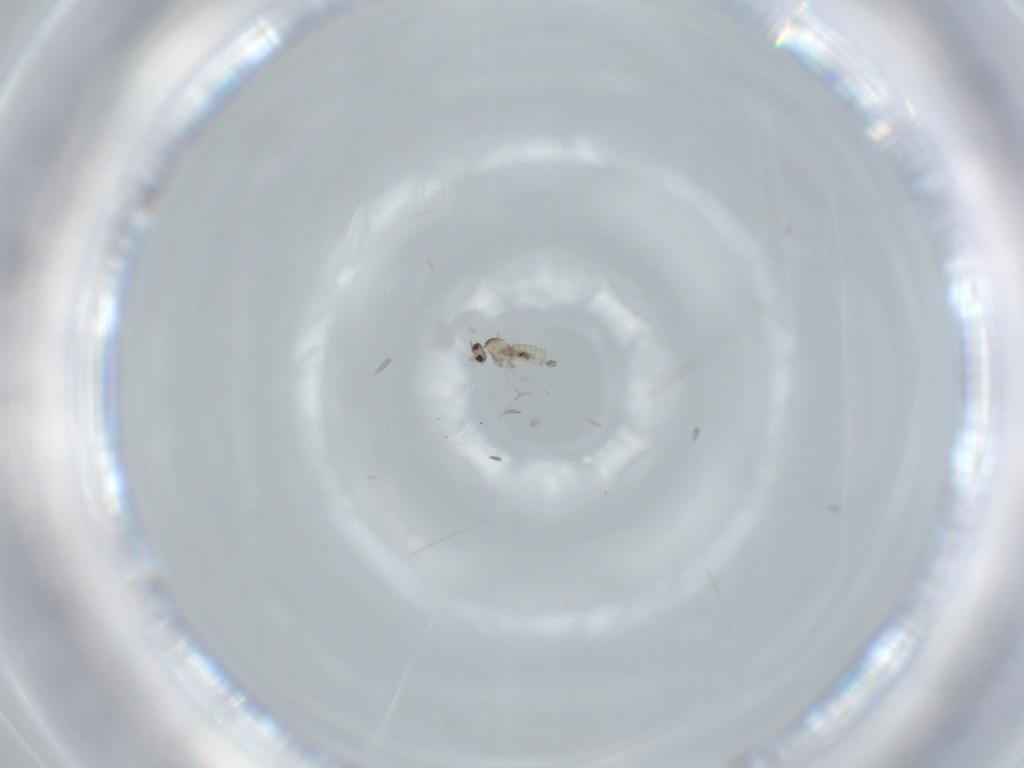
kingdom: Animalia
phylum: Arthropoda
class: Insecta
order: Diptera
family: Cecidomyiidae
